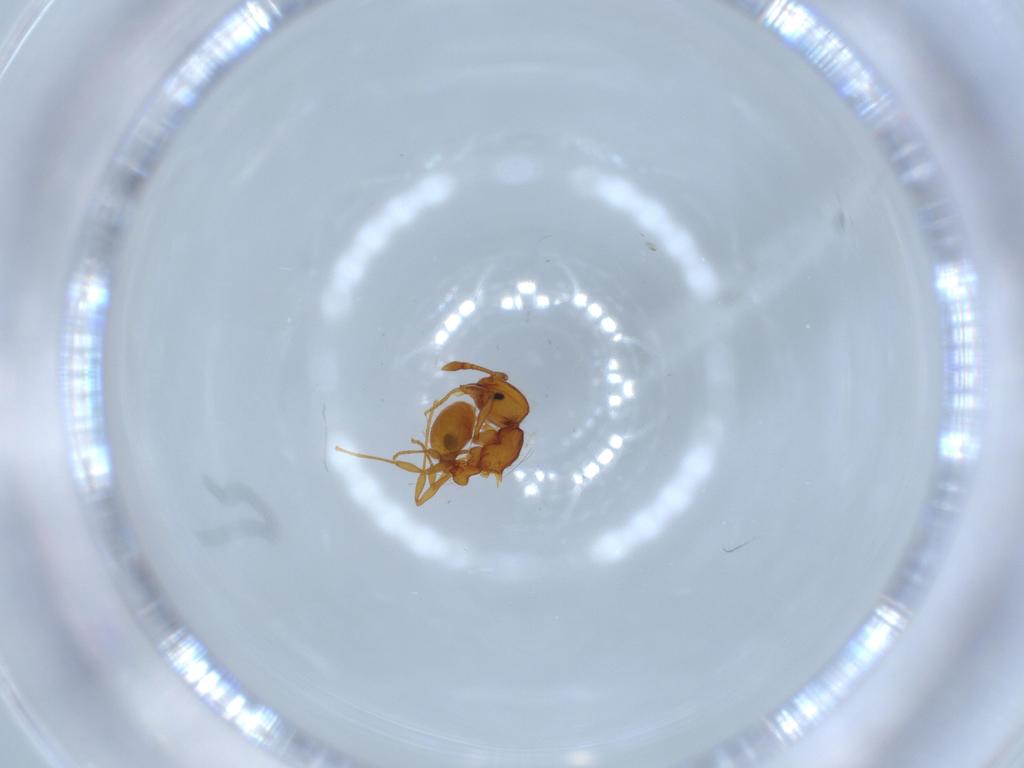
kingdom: Animalia
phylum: Arthropoda
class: Insecta
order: Hymenoptera
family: Formicidae
